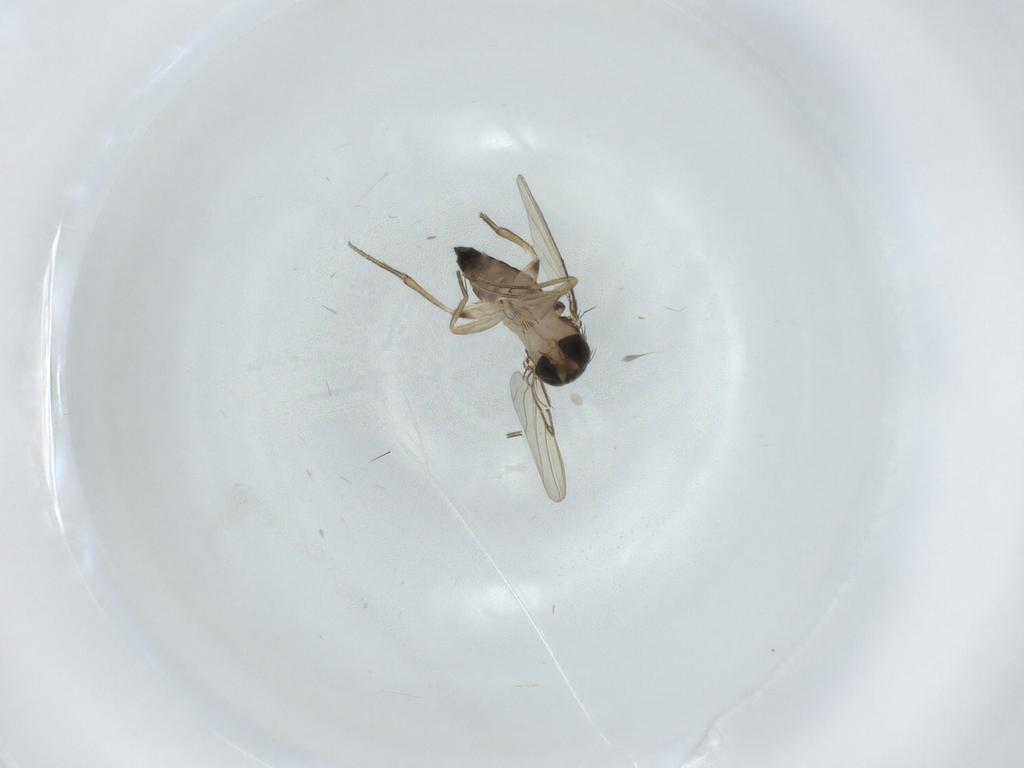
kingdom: Animalia
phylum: Arthropoda
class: Insecta
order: Diptera
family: Phoridae
